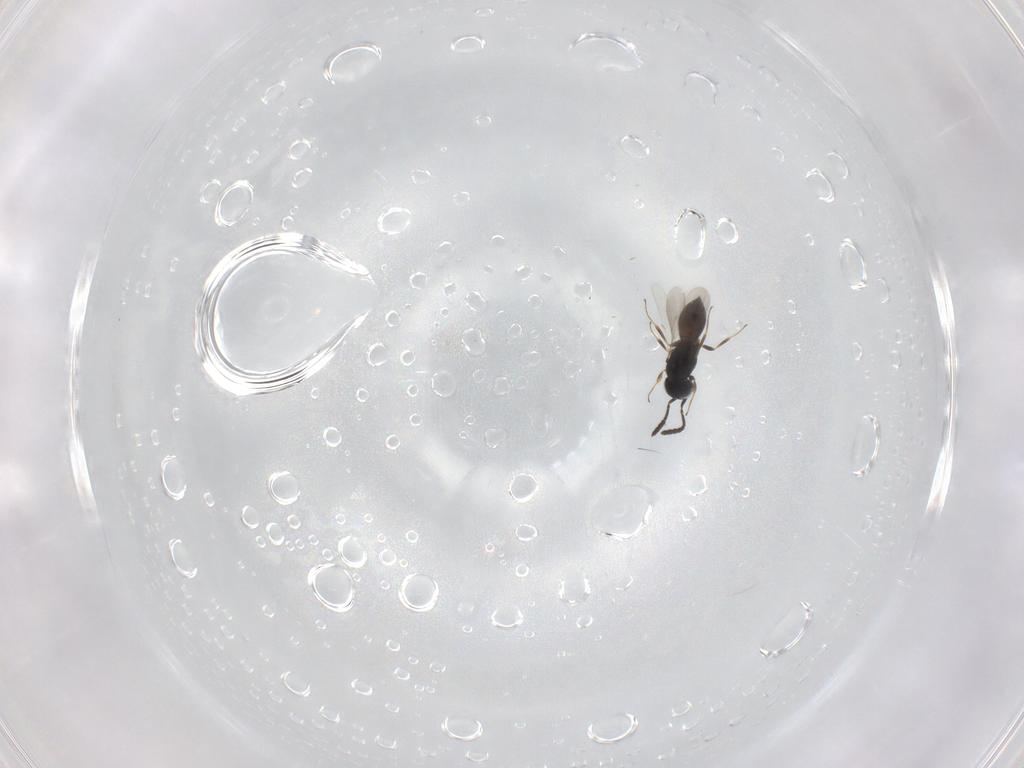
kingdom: Animalia
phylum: Arthropoda
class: Insecta
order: Hymenoptera
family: Scelionidae
